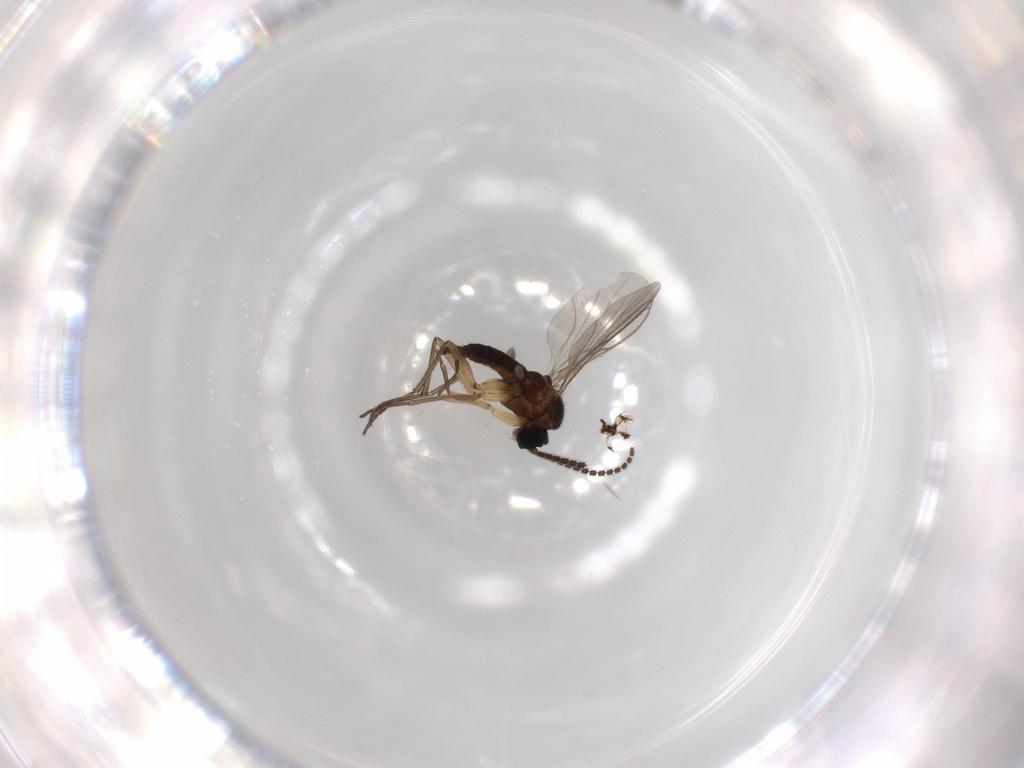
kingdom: Animalia
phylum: Arthropoda
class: Insecta
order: Diptera
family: Sciaridae
